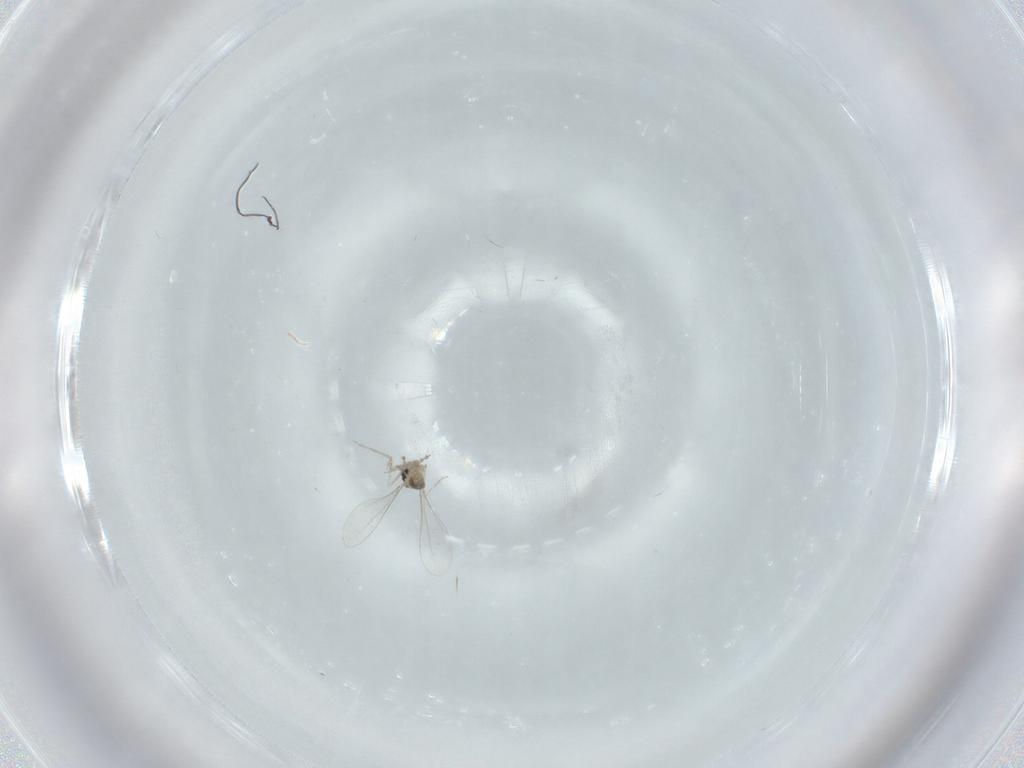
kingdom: Animalia
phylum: Arthropoda
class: Insecta
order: Diptera
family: Cecidomyiidae
